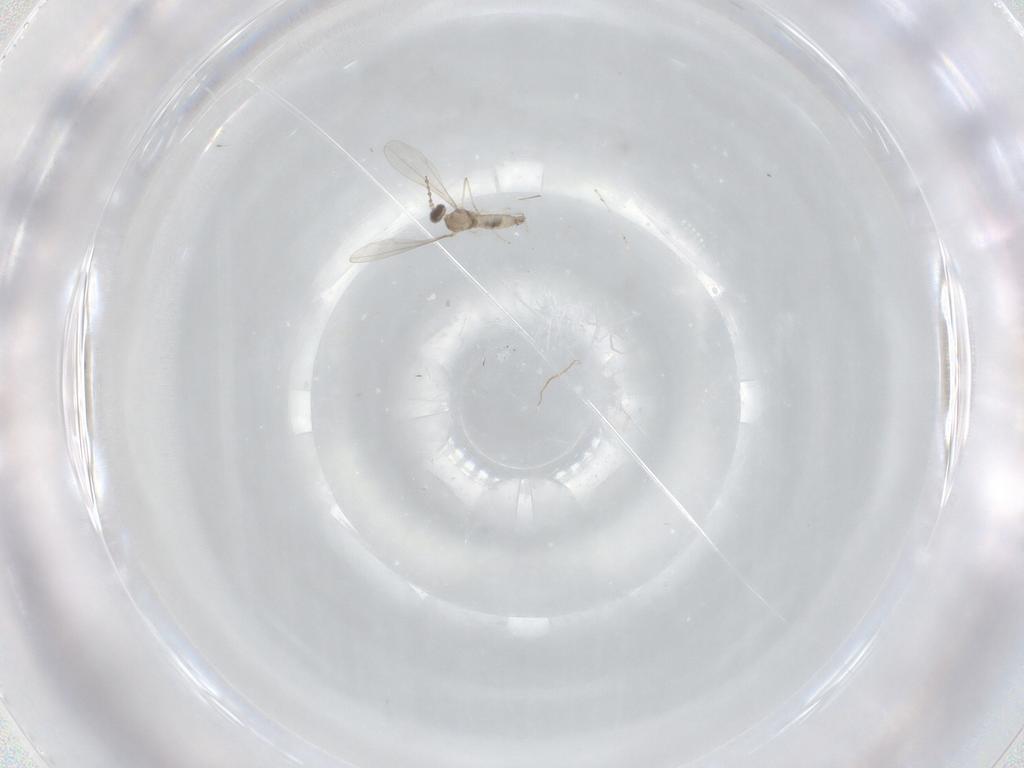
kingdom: Animalia
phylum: Arthropoda
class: Insecta
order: Diptera
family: Cecidomyiidae
